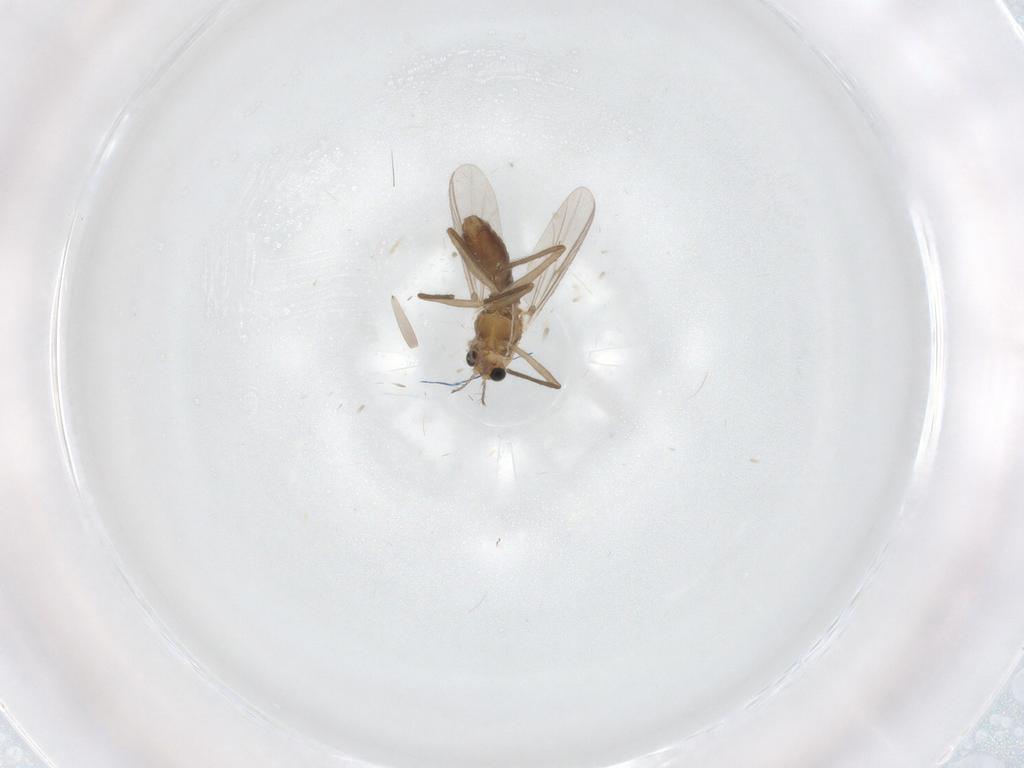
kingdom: Animalia
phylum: Arthropoda
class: Insecta
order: Diptera
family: Chironomidae
